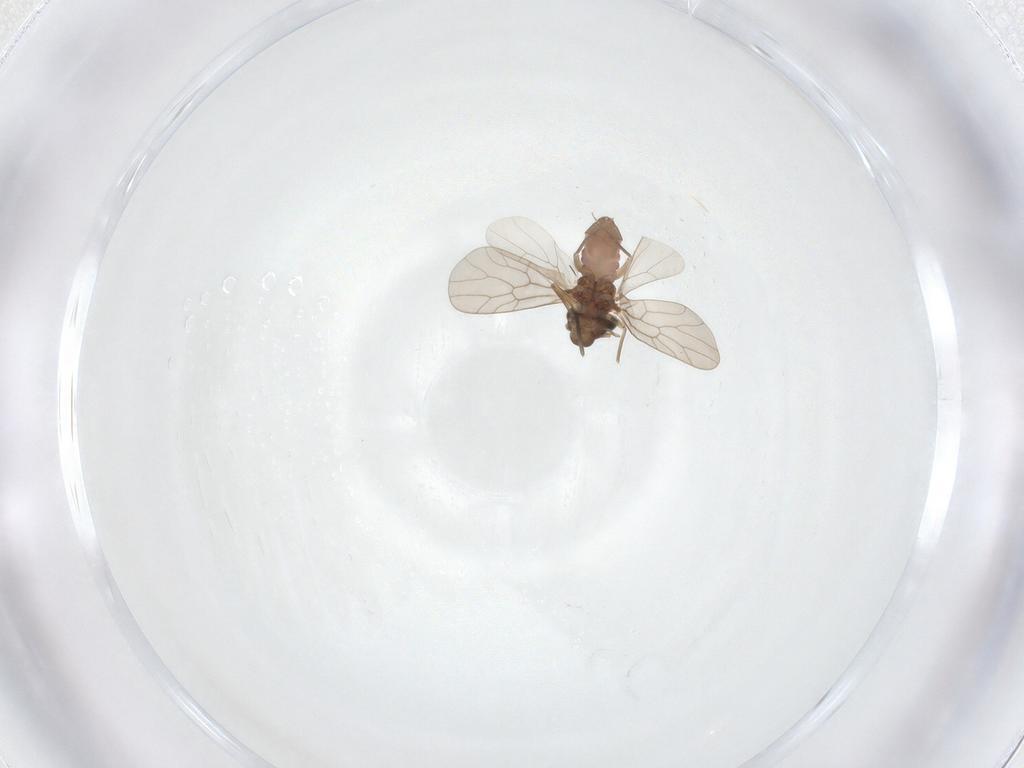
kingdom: Animalia
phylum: Arthropoda
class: Insecta
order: Psocodea
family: Lepidopsocidae
